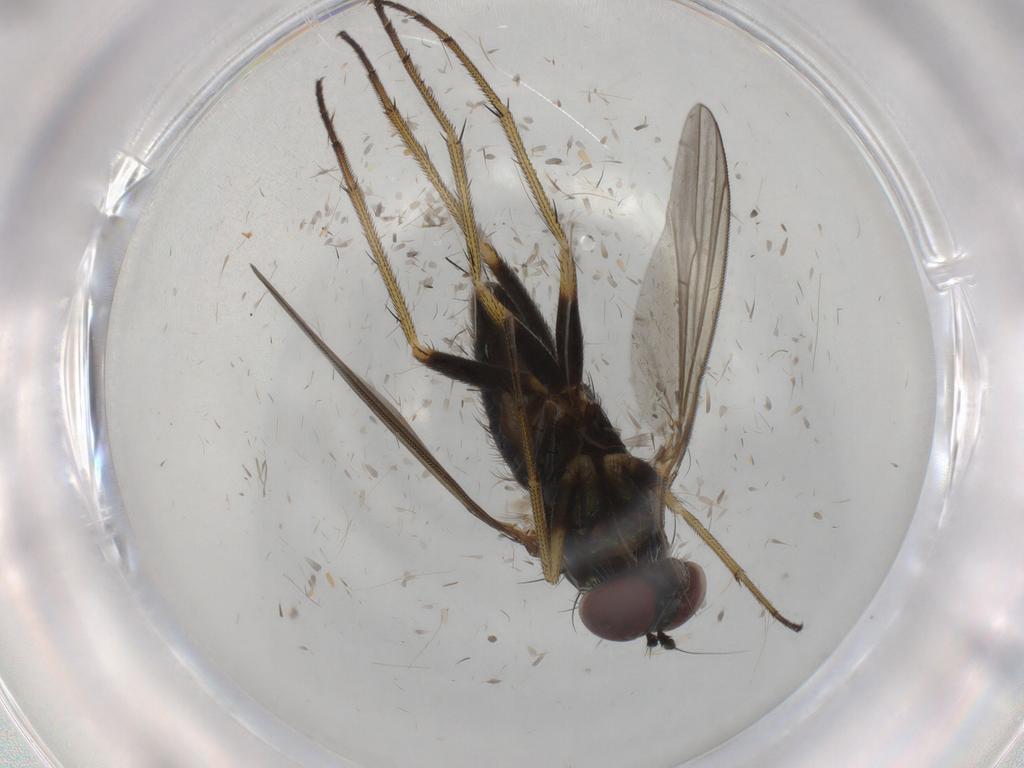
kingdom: Animalia
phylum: Arthropoda
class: Insecta
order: Diptera
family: Dolichopodidae
